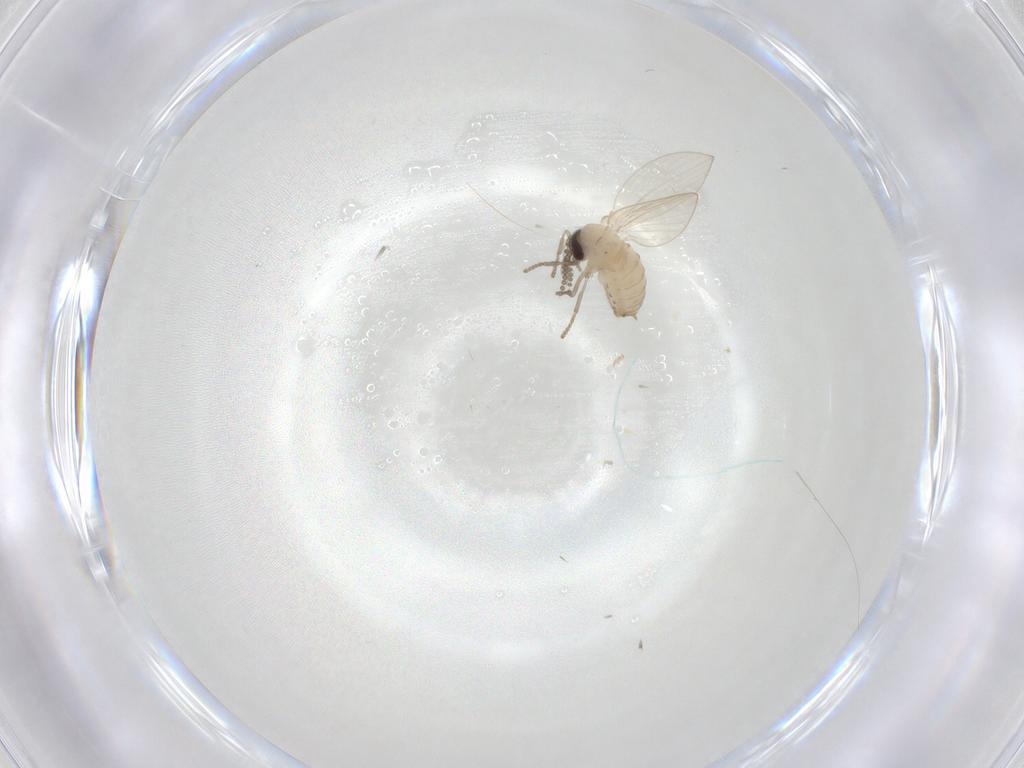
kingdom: Animalia
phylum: Arthropoda
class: Insecta
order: Diptera
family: Psychodidae
